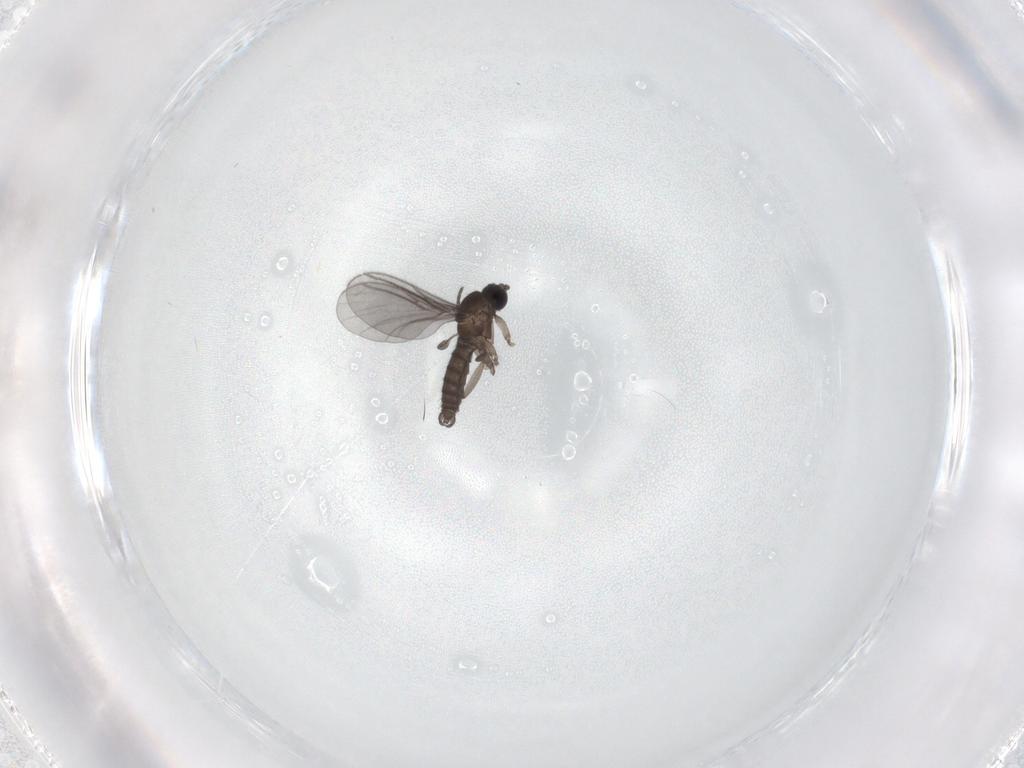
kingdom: Animalia
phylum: Arthropoda
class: Insecta
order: Diptera
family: Chironomidae
